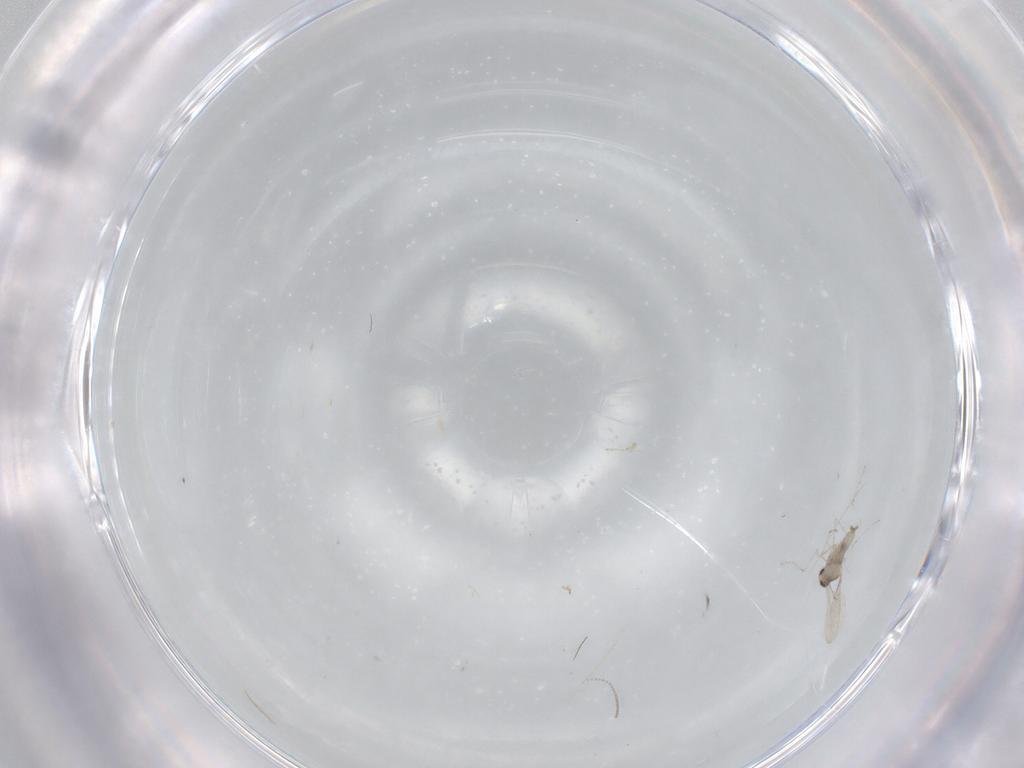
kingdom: Animalia
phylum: Arthropoda
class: Insecta
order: Diptera
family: Cecidomyiidae
